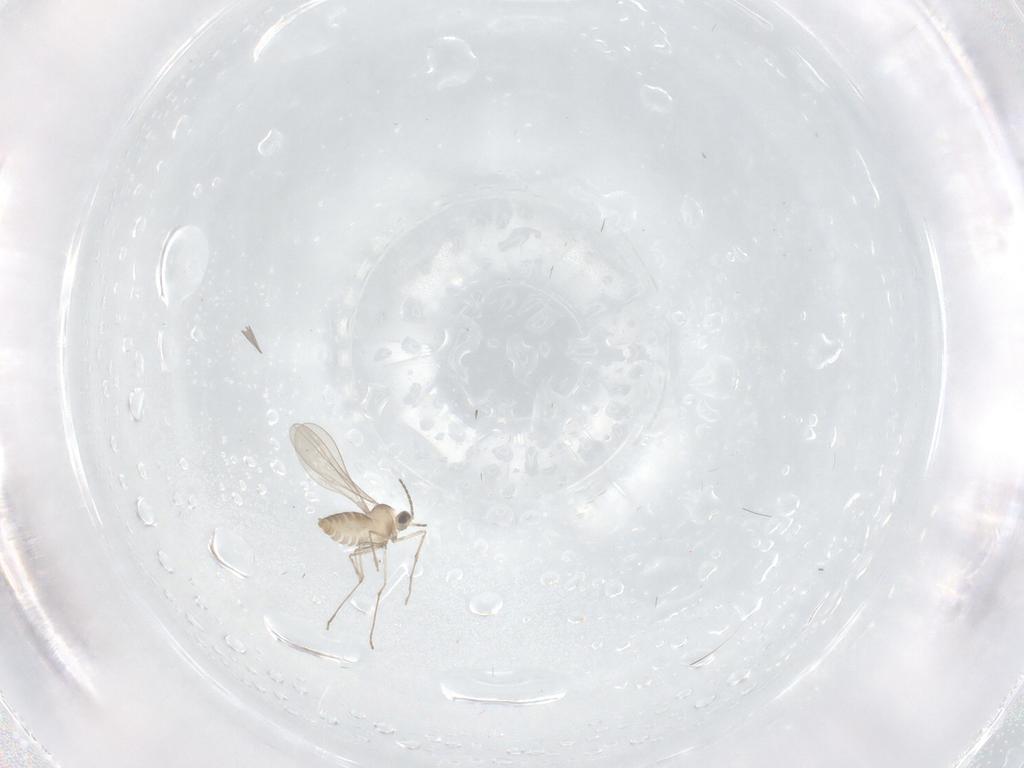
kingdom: Animalia
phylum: Arthropoda
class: Insecta
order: Diptera
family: Cecidomyiidae
